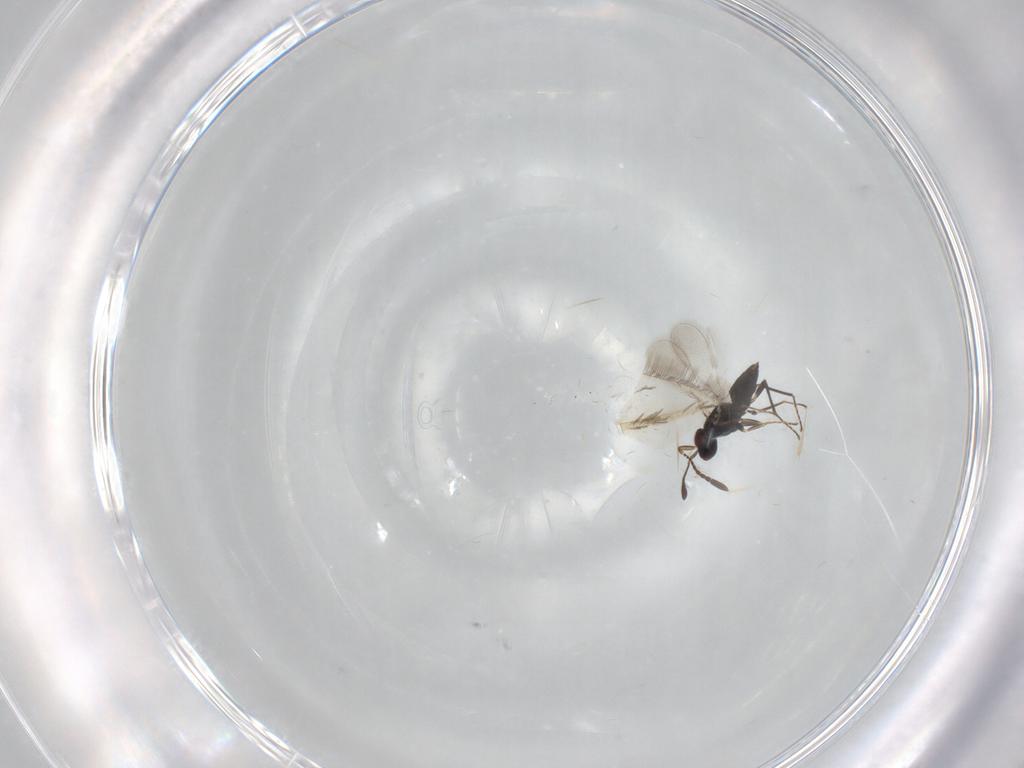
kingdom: Animalia
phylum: Arthropoda
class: Insecta
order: Hymenoptera
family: Mymaridae
